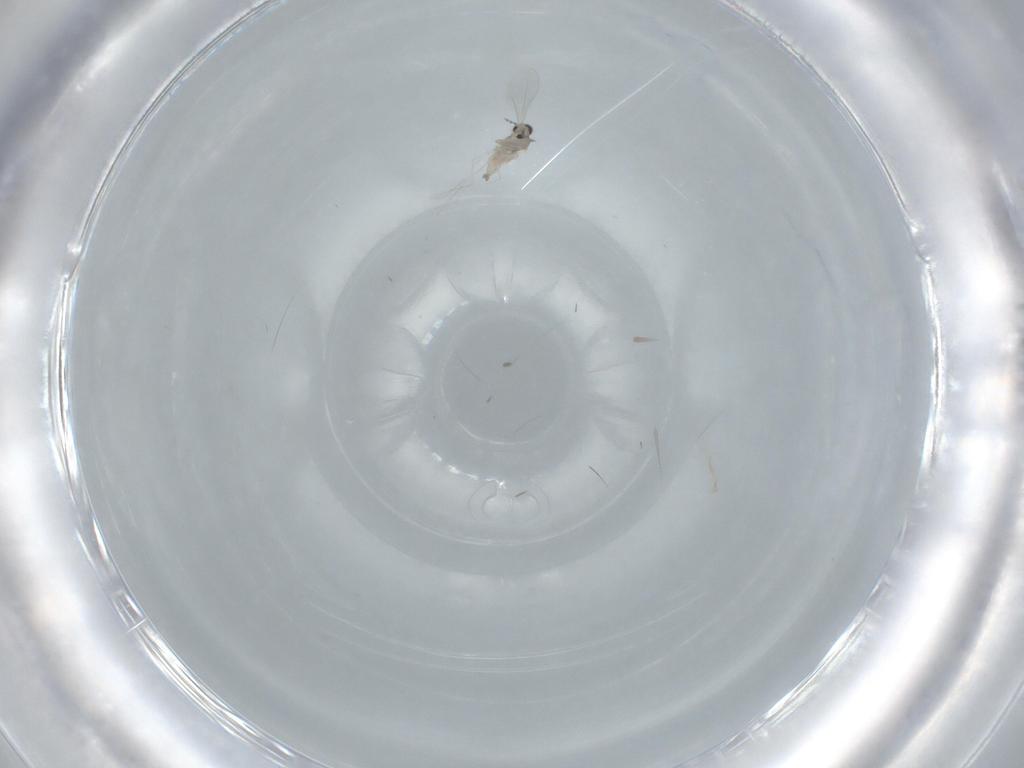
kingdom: Animalia
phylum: Arthropoda
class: Insecta
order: Diptera
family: Cecidomyiidae
